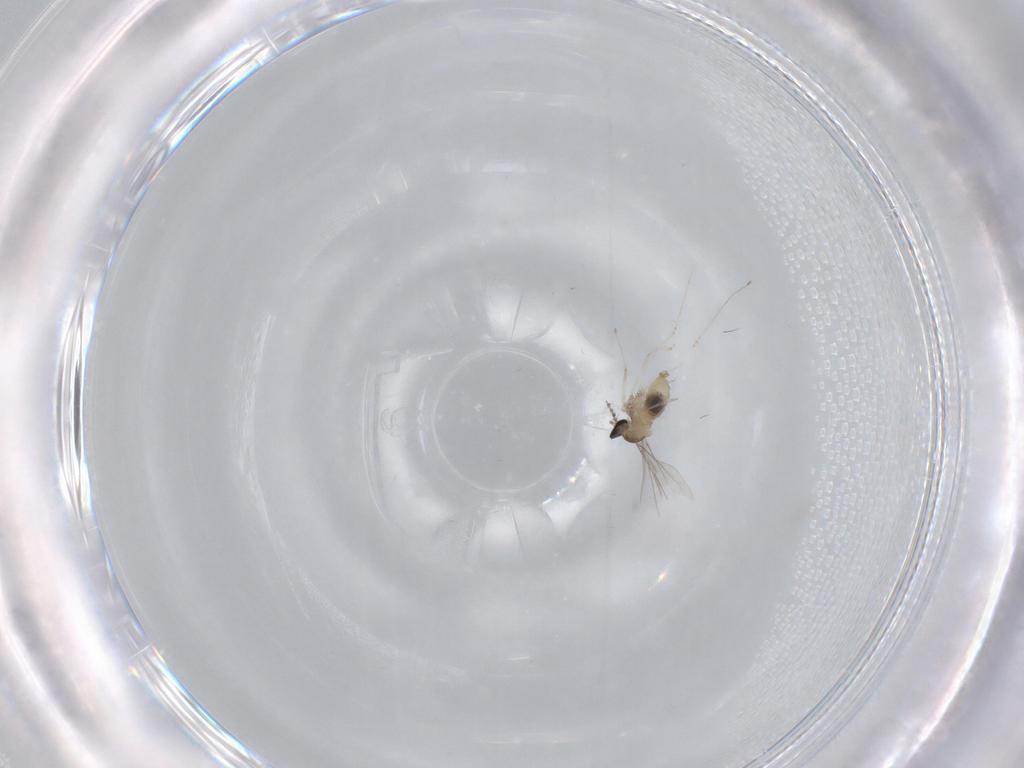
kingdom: Animalia
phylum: Arthropoda
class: Insecta
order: Diptera
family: Cecidomyiidae
